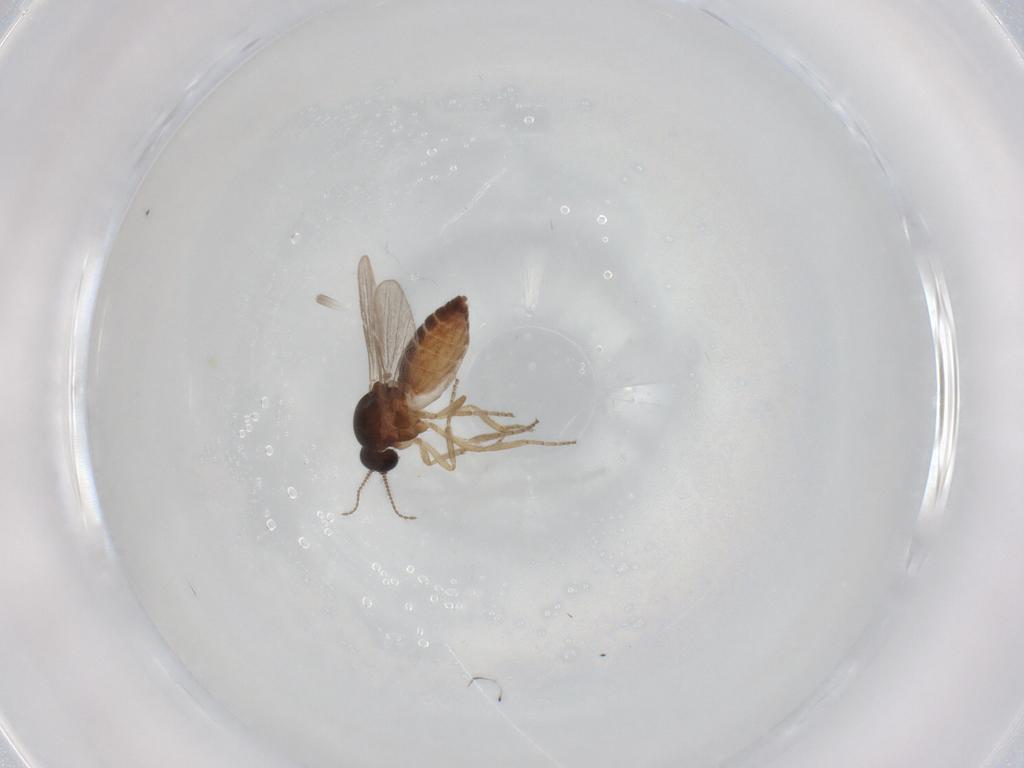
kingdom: Animalia
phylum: Arthropoda
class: Insecta
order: Diptera
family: Ceratopogonidae
